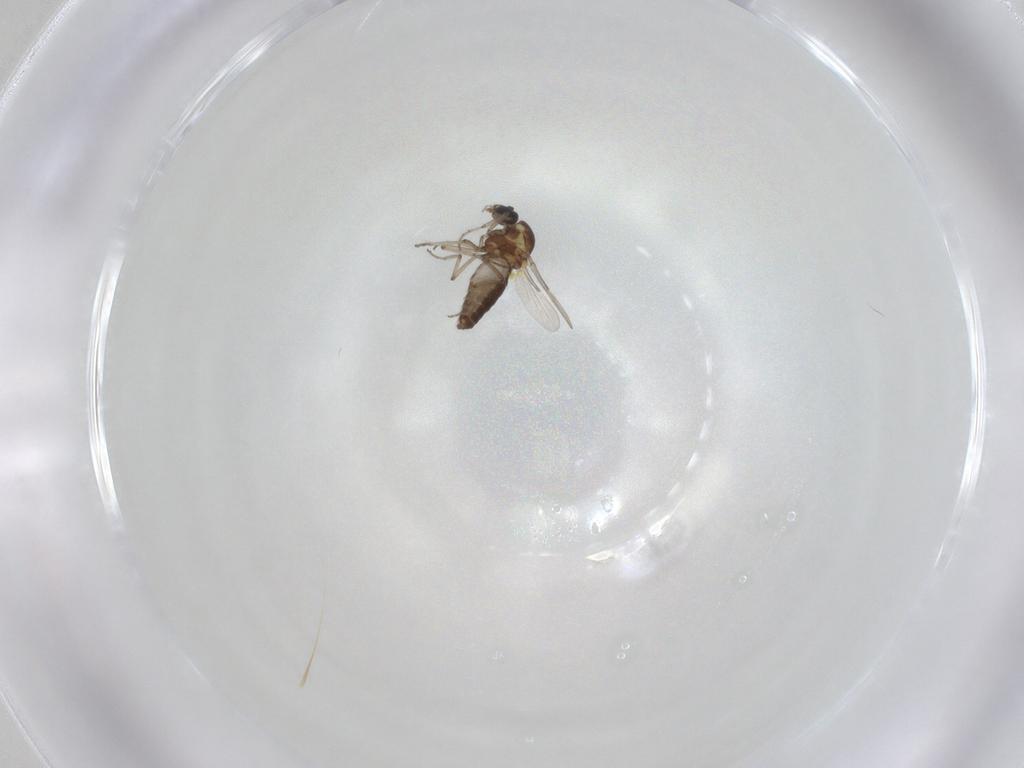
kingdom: Animalia
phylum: Arthropoda
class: Insecta
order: Diptera
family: Ceratopogonidae
